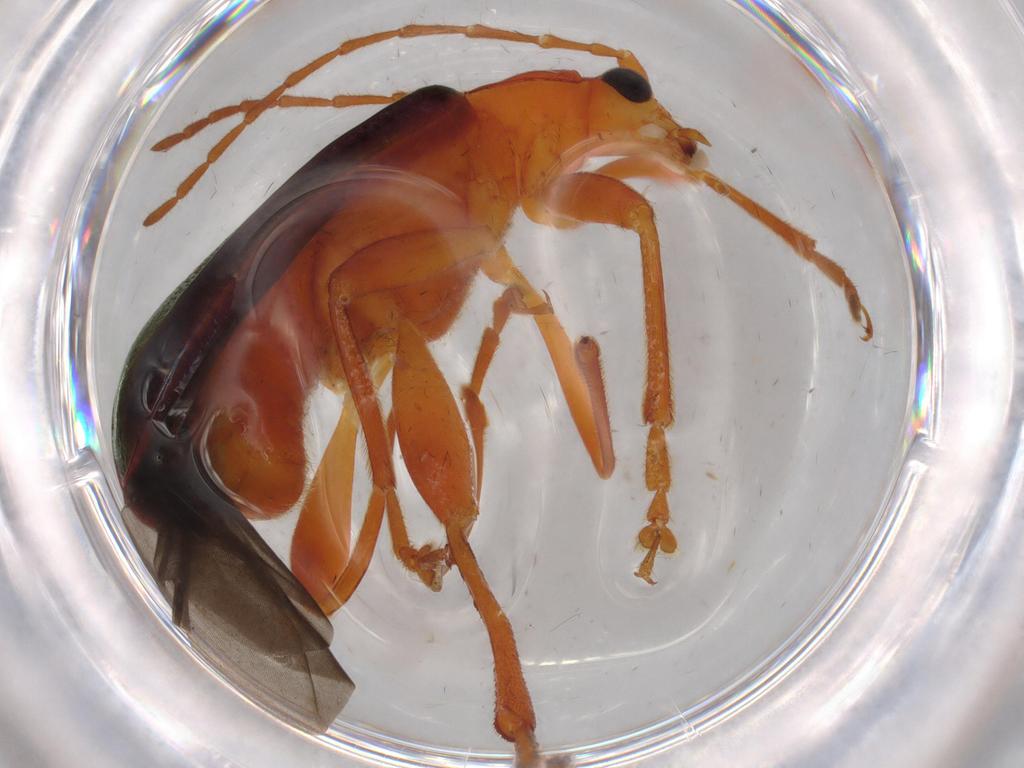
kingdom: Animalia
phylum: Arthropoda
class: Insecta
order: Coleoptera
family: Chrysomelidae
